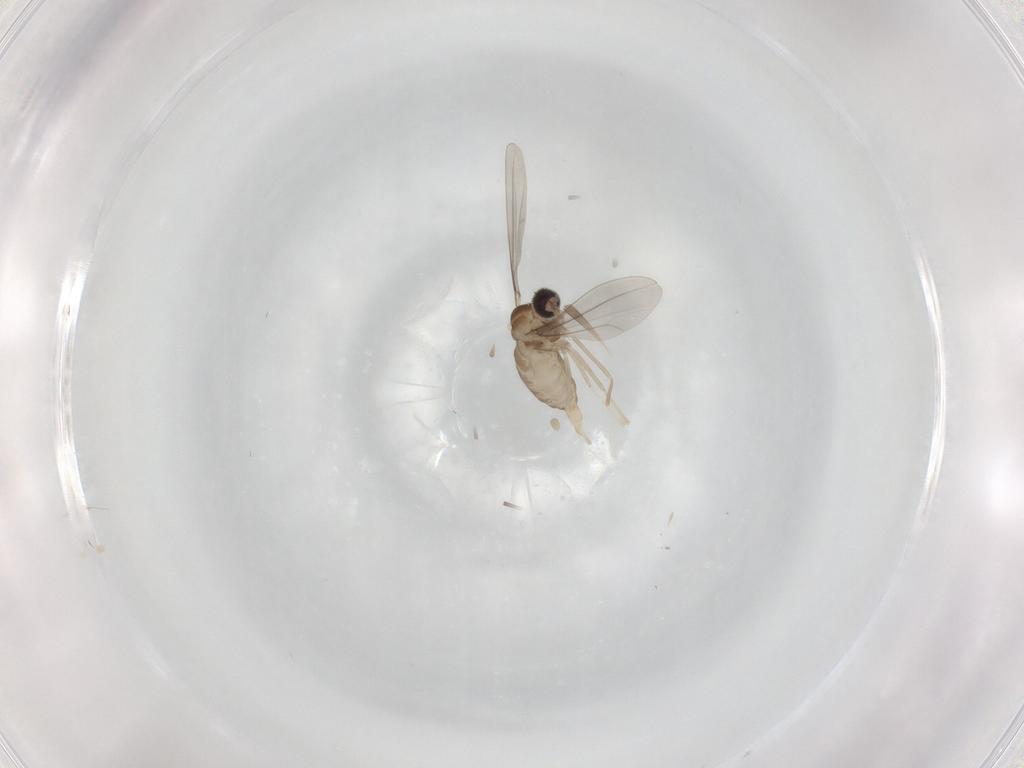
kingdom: Animalia
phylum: Arthropoda
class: Insecta
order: Diptera
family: Cecidomyiidae
